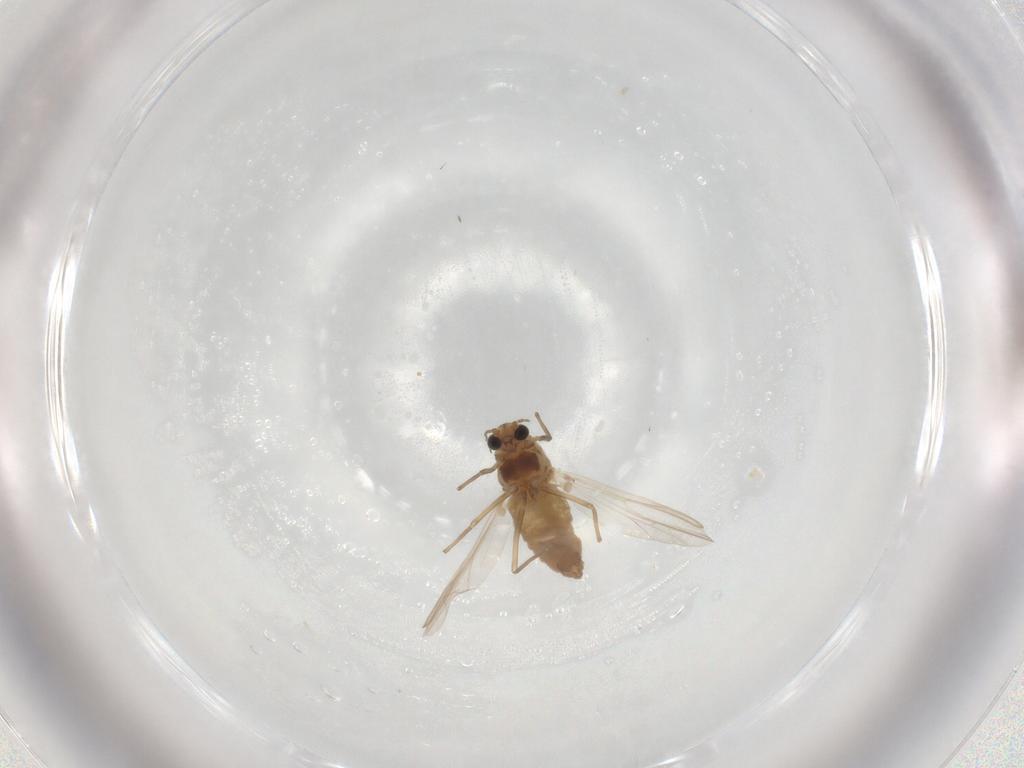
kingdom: Animalia
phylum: Arthropoda
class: Insecta
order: Diptera
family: Chironomidae
